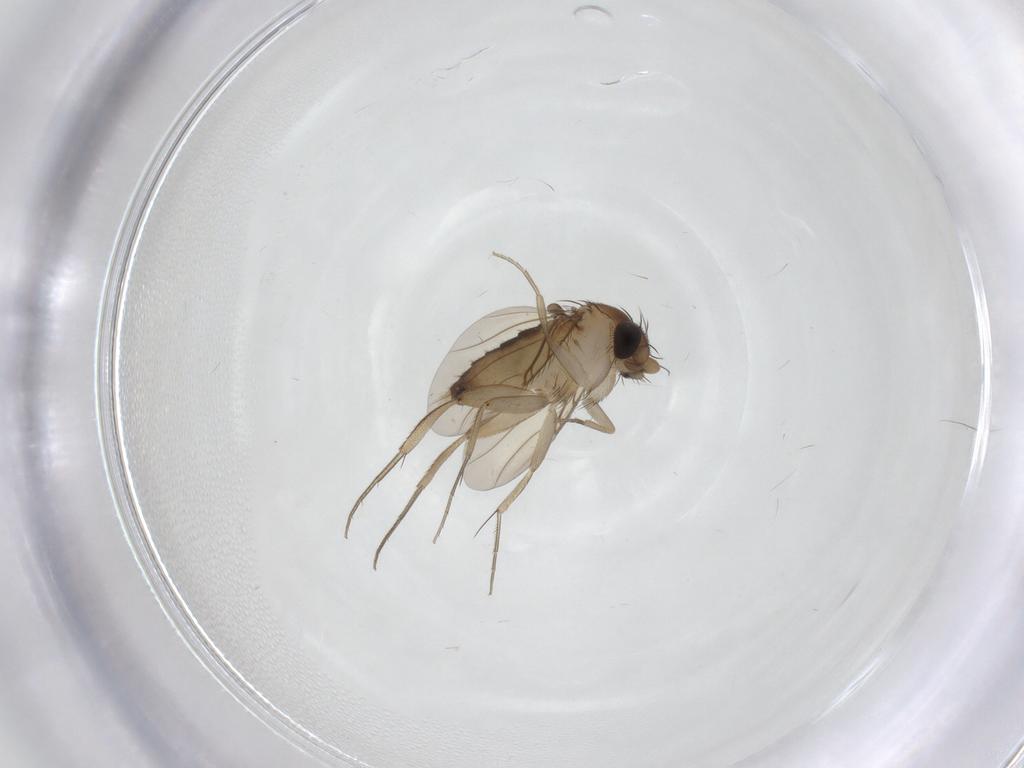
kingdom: Animalia
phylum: Arthropoda
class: Insecta
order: Diptera
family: Phoridae
